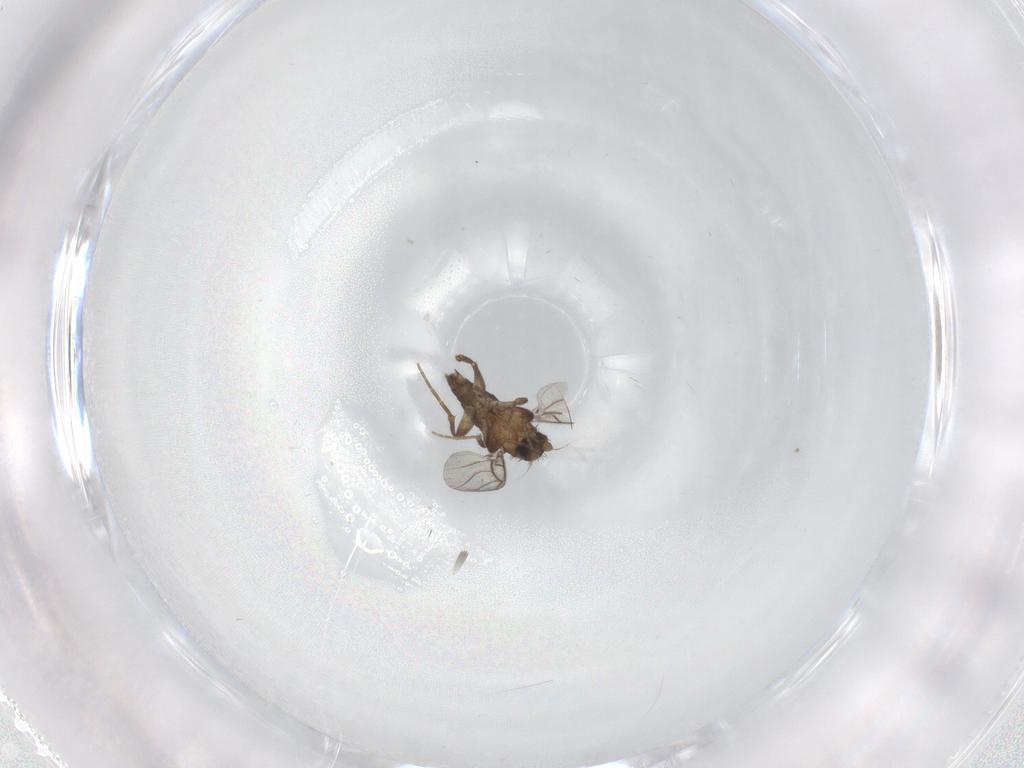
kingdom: Animalia
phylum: Arthropoda
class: Insecta
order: Diptera
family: Phoridae
